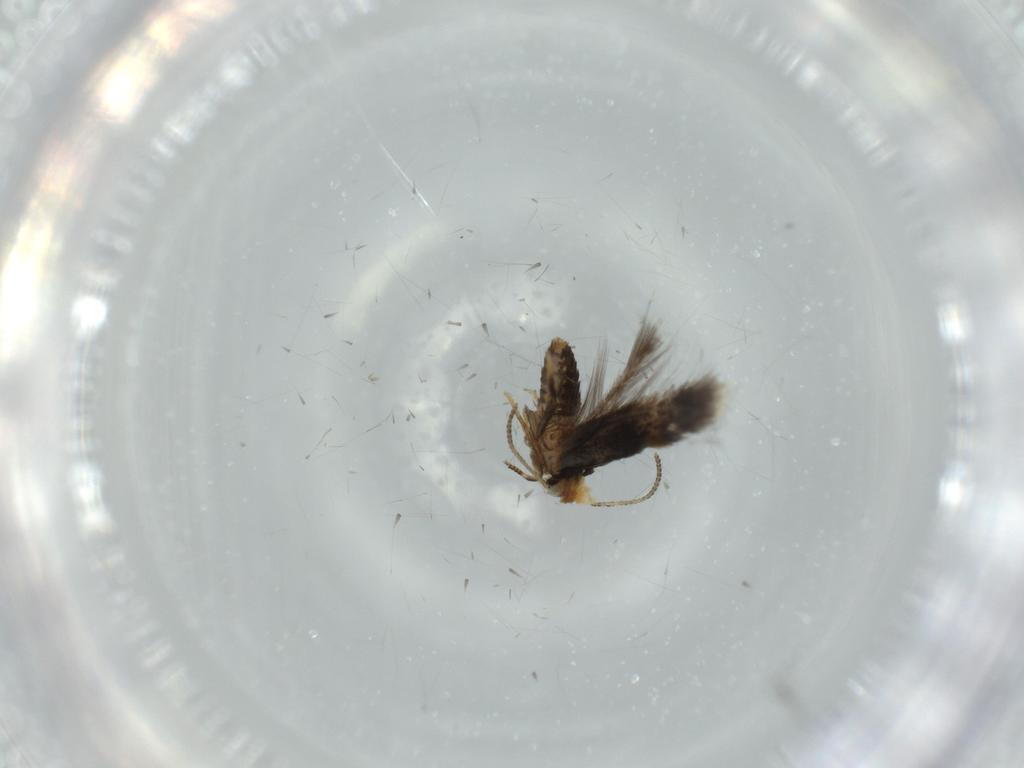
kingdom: Animalia
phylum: Arthropoda
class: Insecta
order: Lepidoptera
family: Nepticulidae
